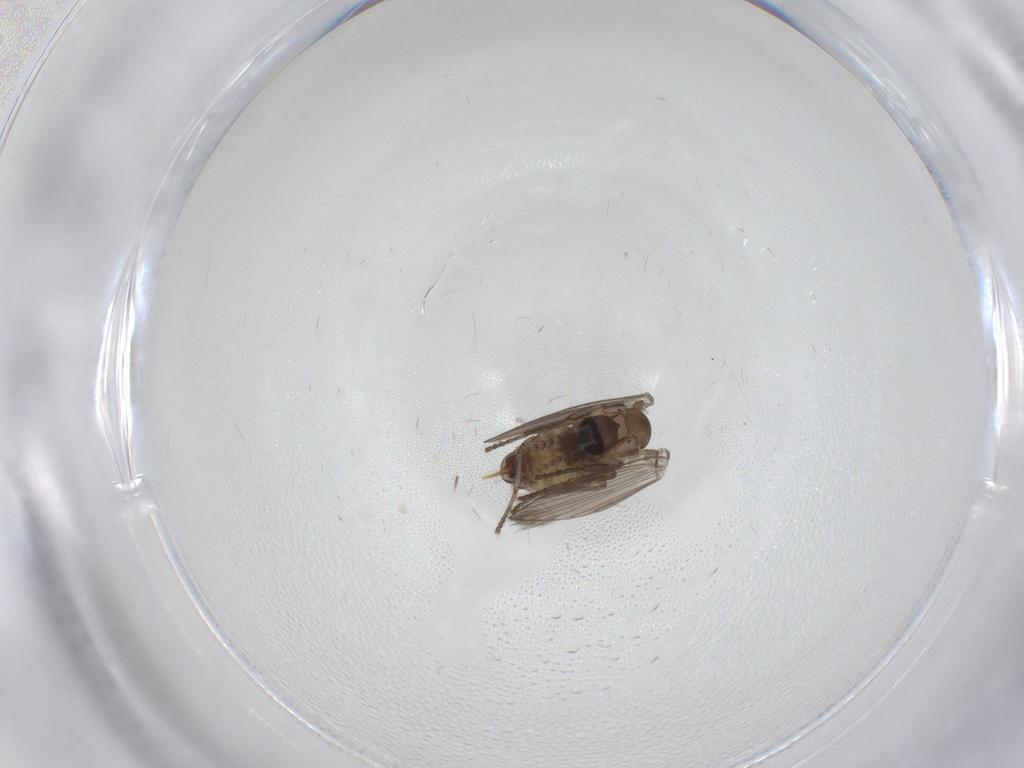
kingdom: Animalia
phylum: Arthropoda
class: Insecta
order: Diptera
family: Psychodidae
